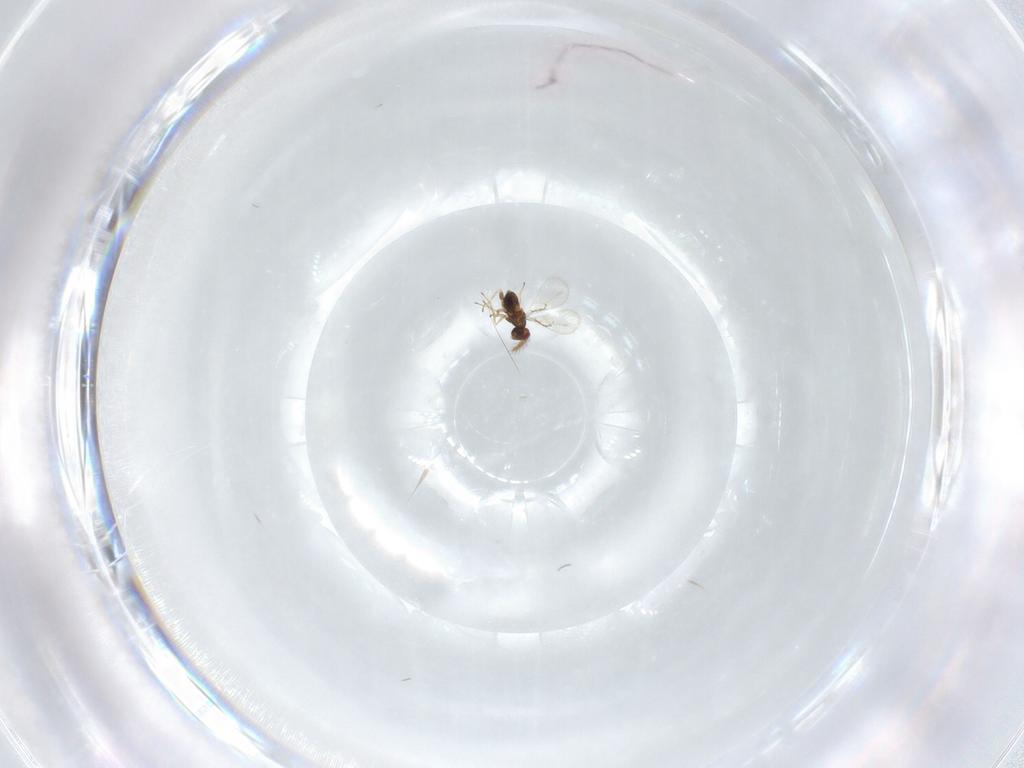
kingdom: Animalia
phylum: Arthropoda
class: Insecta
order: Hymenoptera
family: Trichogrammatidae
